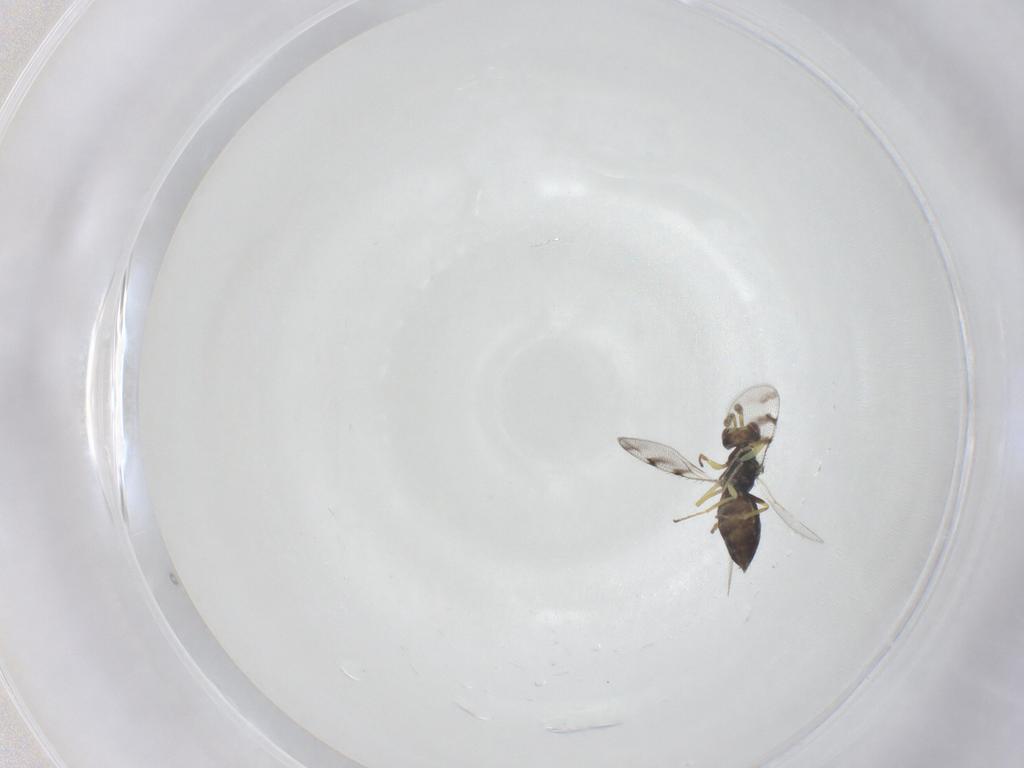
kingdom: Animalia
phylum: Arthropoda
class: Insecta
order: Hymenoptera
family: Eulophidae
